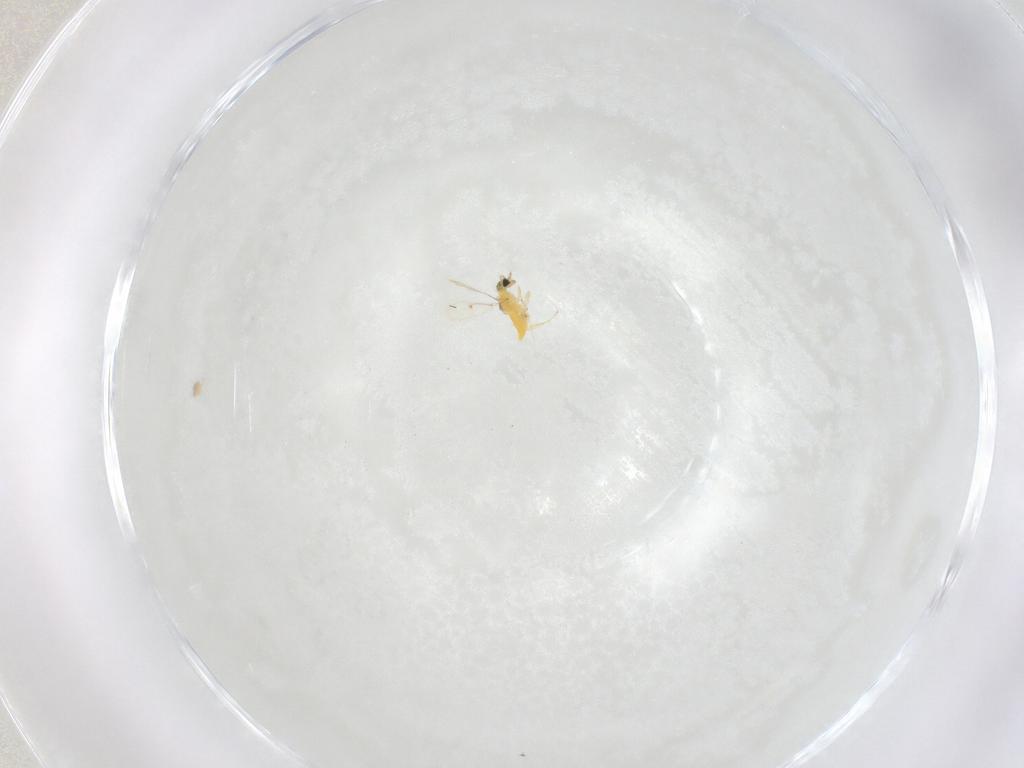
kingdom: Animalia
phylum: Arthropoda
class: Insecta
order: Hymenoptera
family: Trichogrammatidae
